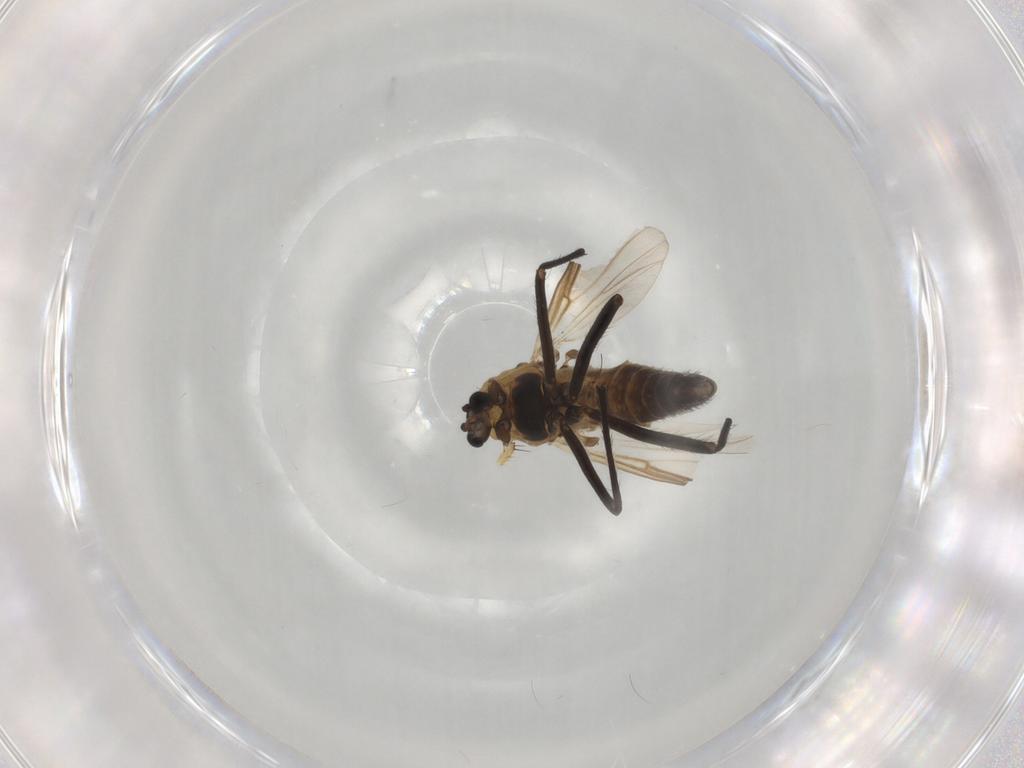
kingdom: Animalia
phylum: Arthropoda
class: Insecta
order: Diptera
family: Chironomidae
